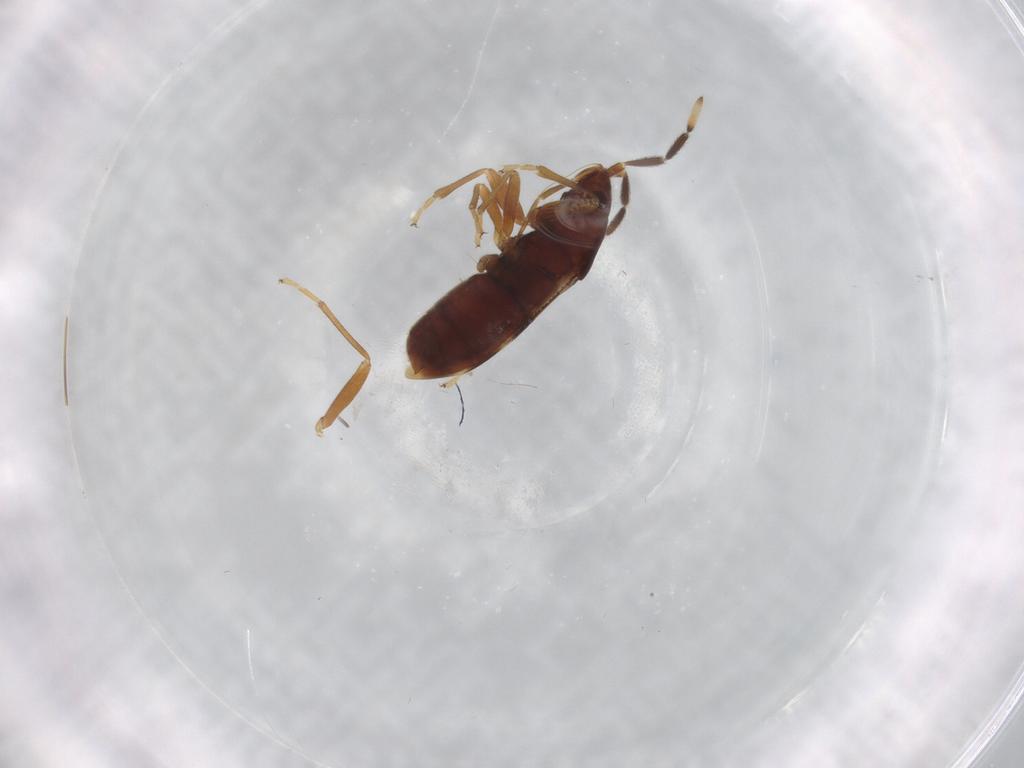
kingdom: Animalia
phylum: Arthropoda
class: Insecta
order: Hemiptera
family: Rhyparochromidae
